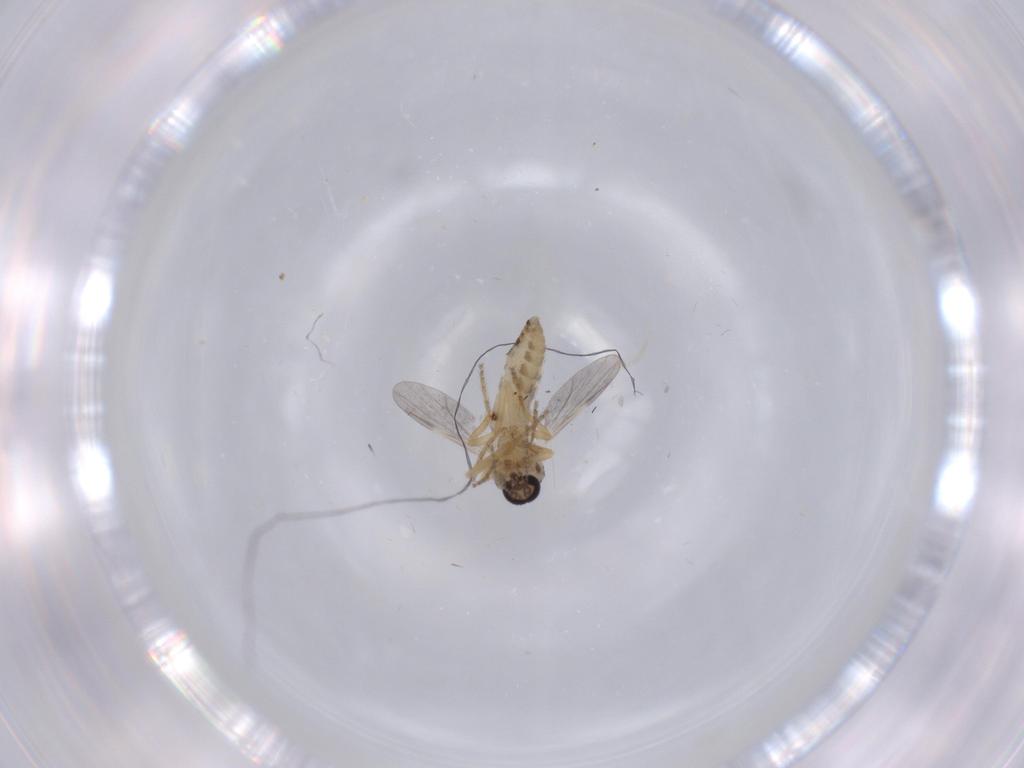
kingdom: Animalia
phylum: Arthropoda
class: Insecta
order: Diptera
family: Ceratopogonidae
